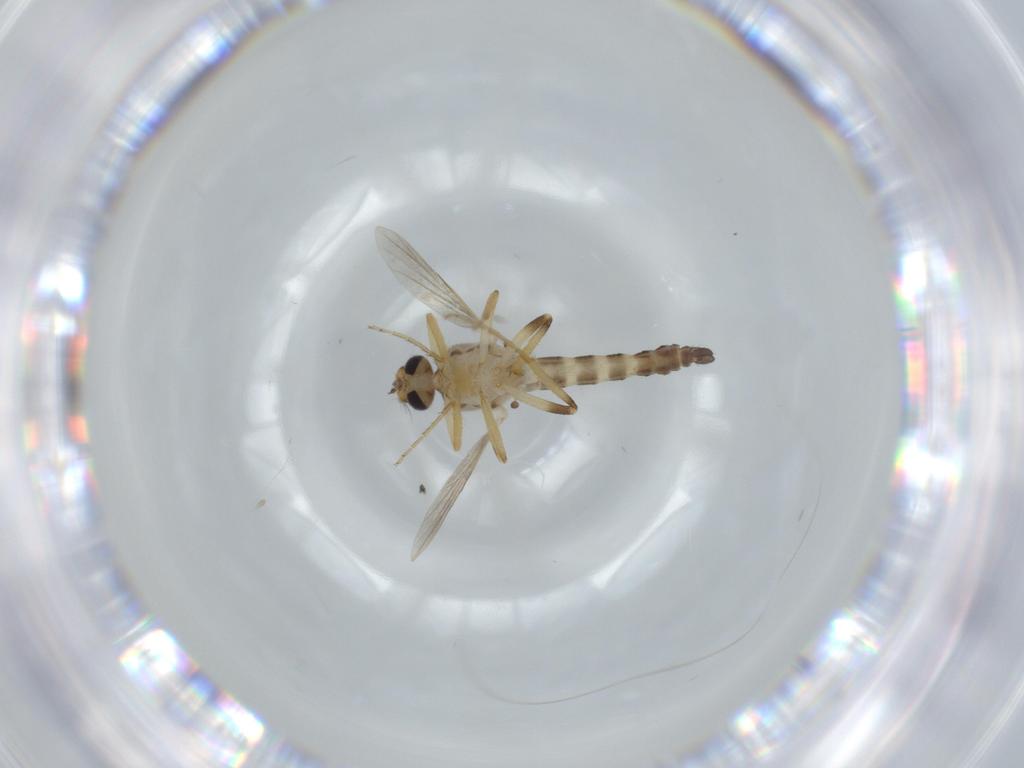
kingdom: Animalia
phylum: Arthropoda
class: Insecta
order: Diptera
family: Ceratopogonidae
